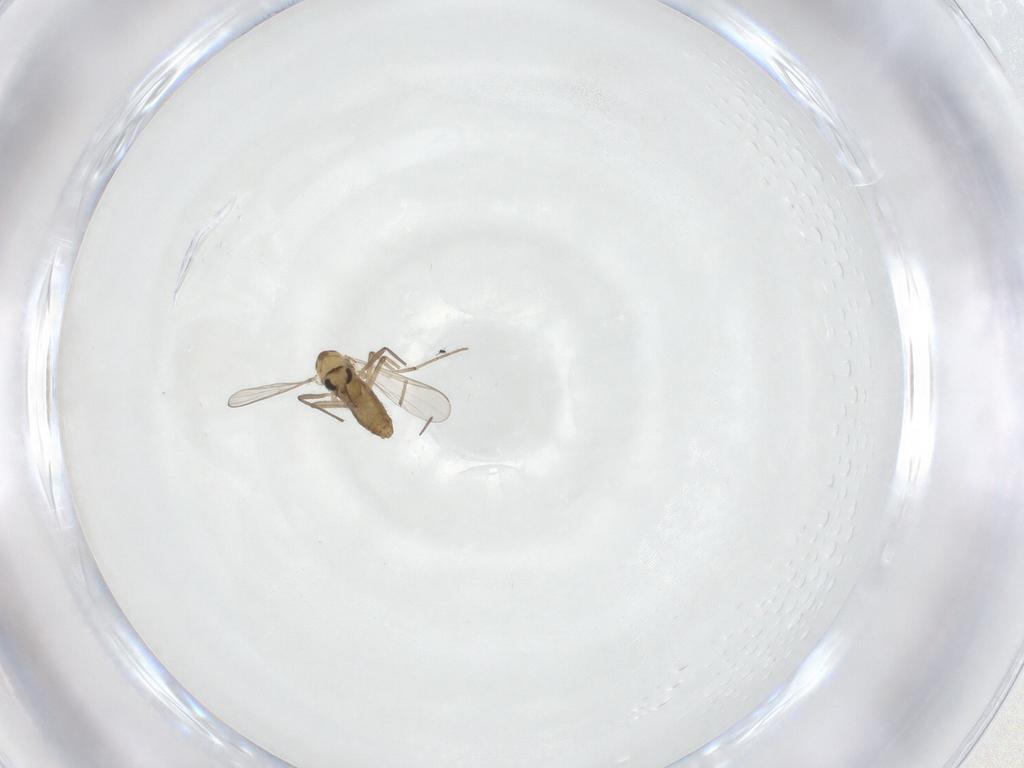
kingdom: Animalia
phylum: Arthropoda
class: Insecta
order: Diptera
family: Chironomidae
